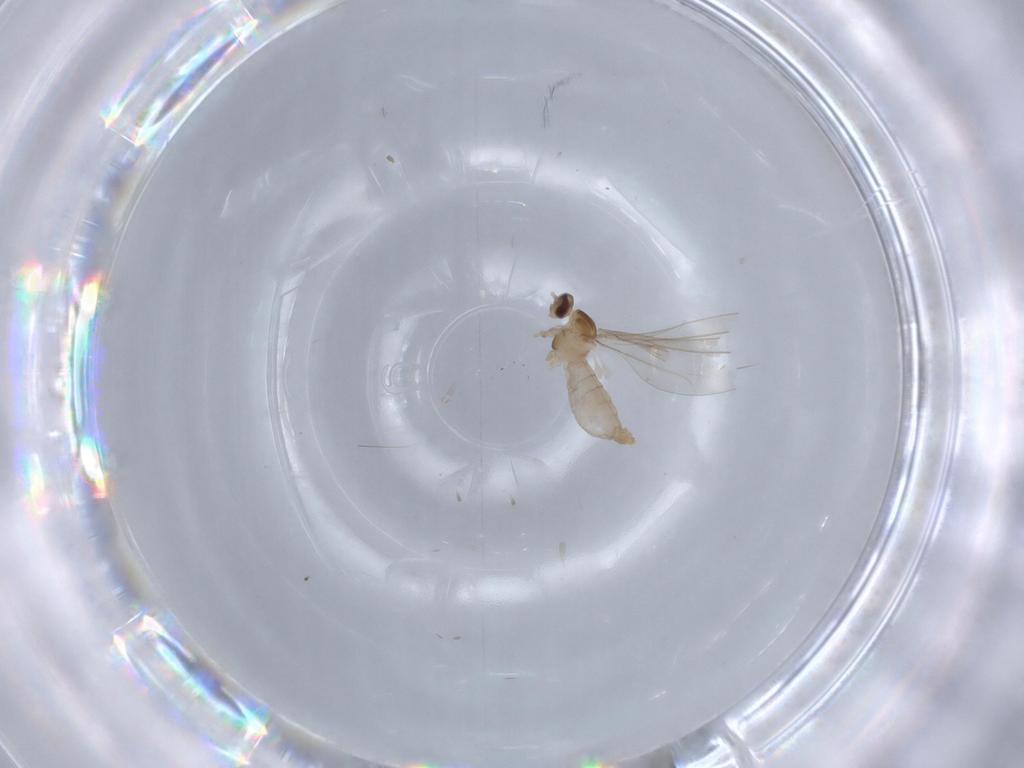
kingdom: Animalia
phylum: Arthropoda
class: Insecta
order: Diptera
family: Cecidomyiidae
